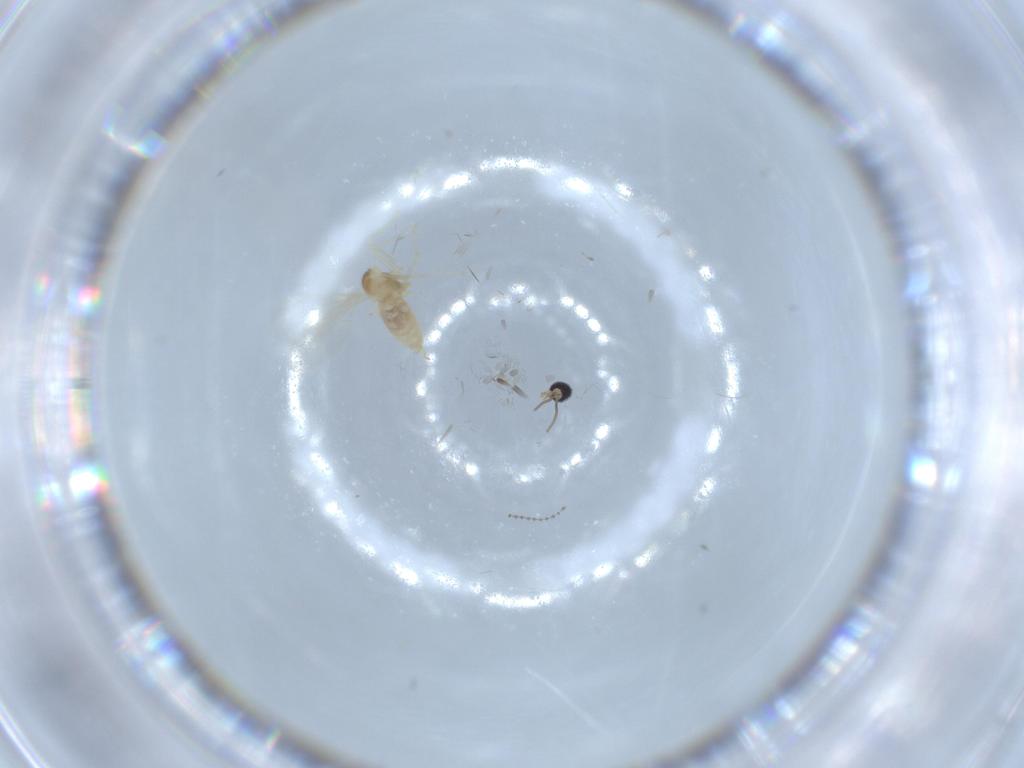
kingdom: Animalia
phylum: Arthropoda
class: Insecta
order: Diptera
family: Cecidomyiidae
